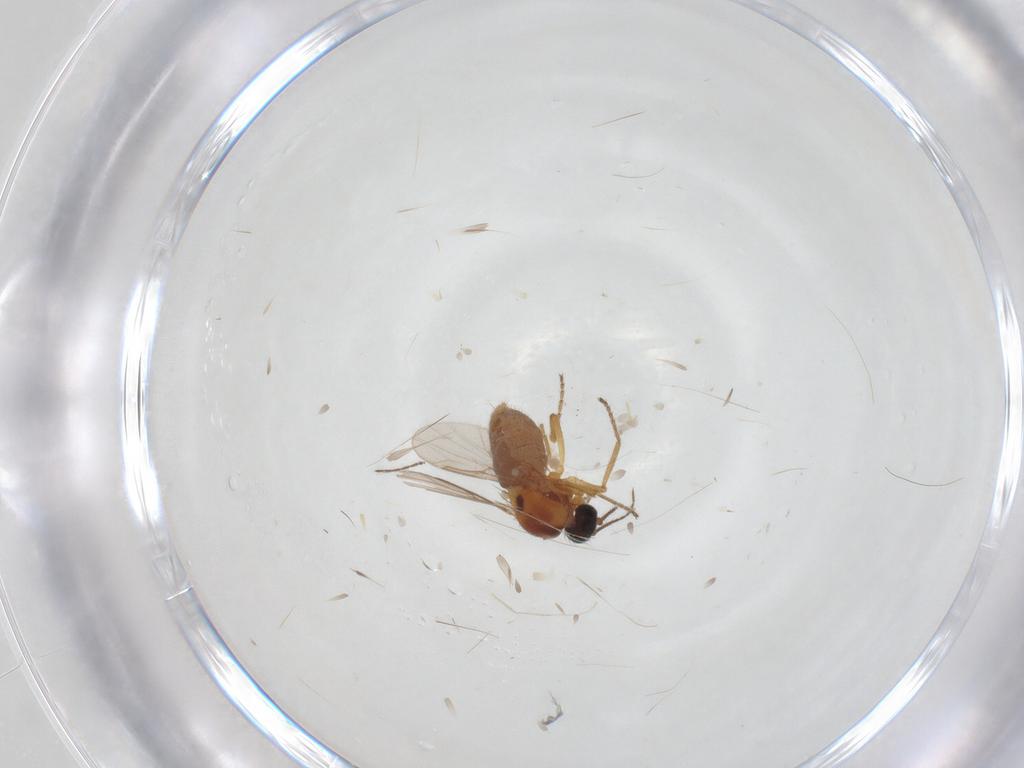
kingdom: Animalia
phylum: Arthropoda
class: Insecta
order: Diptera
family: Ceratopogonidae
